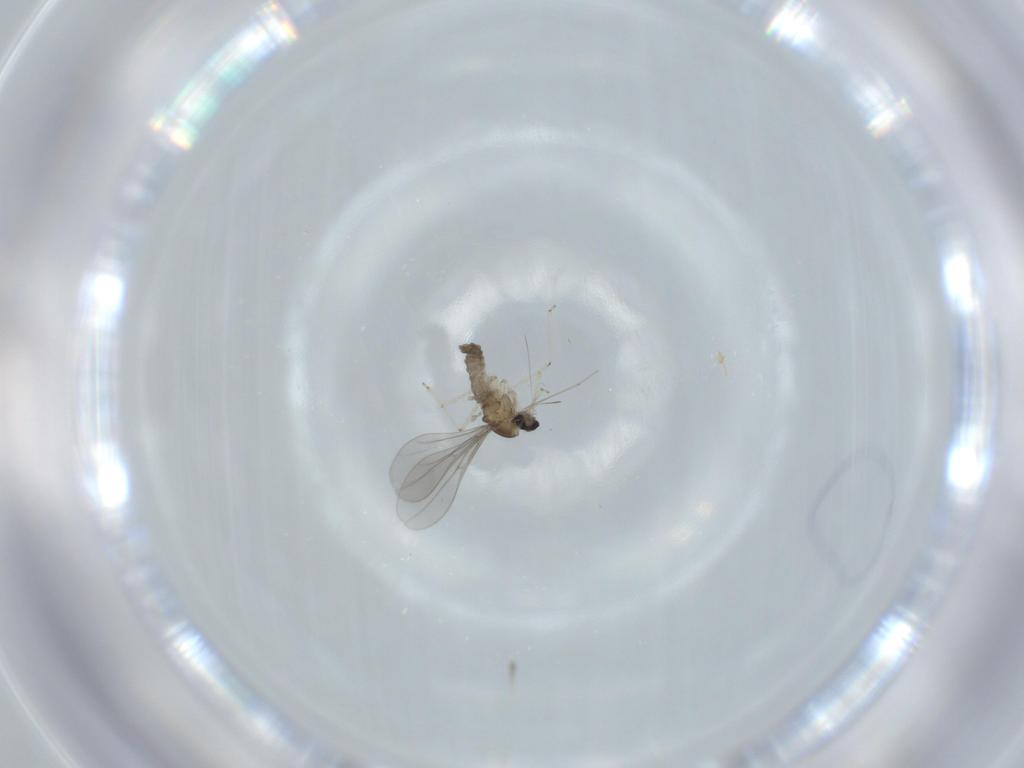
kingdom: Animalia
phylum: Arthropoda
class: Insecta
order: Diptera
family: Cecidomyiidae
